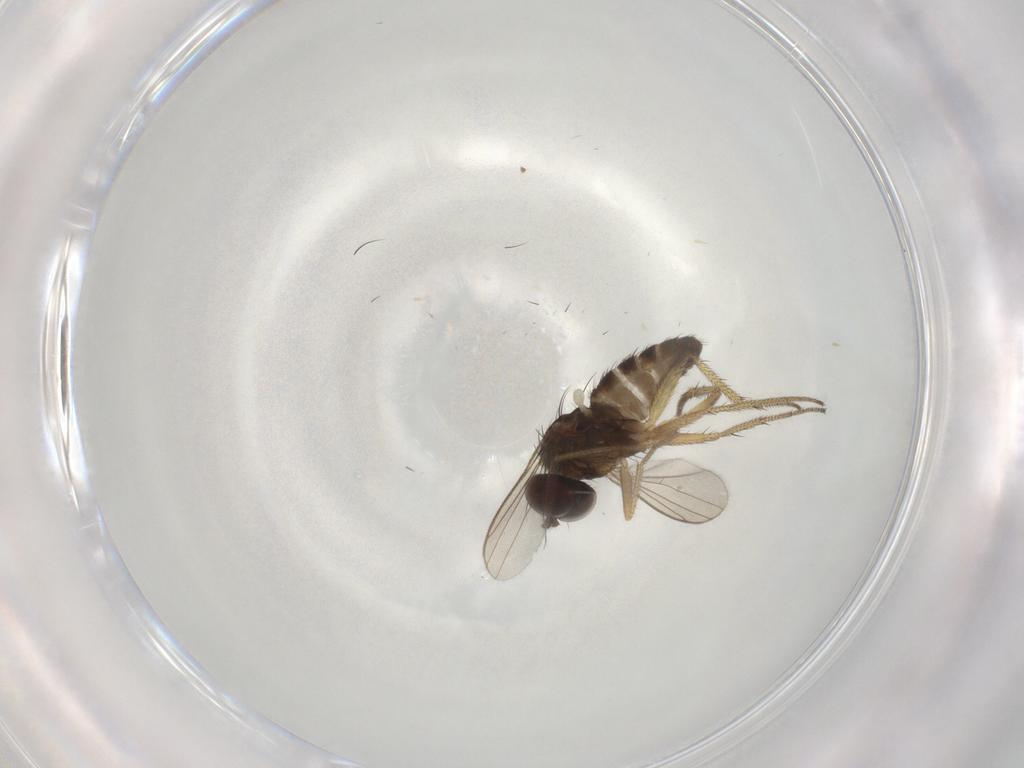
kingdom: Animalia
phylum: Arthropoda
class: Insecta
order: Diptera
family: Dolichopodidae
